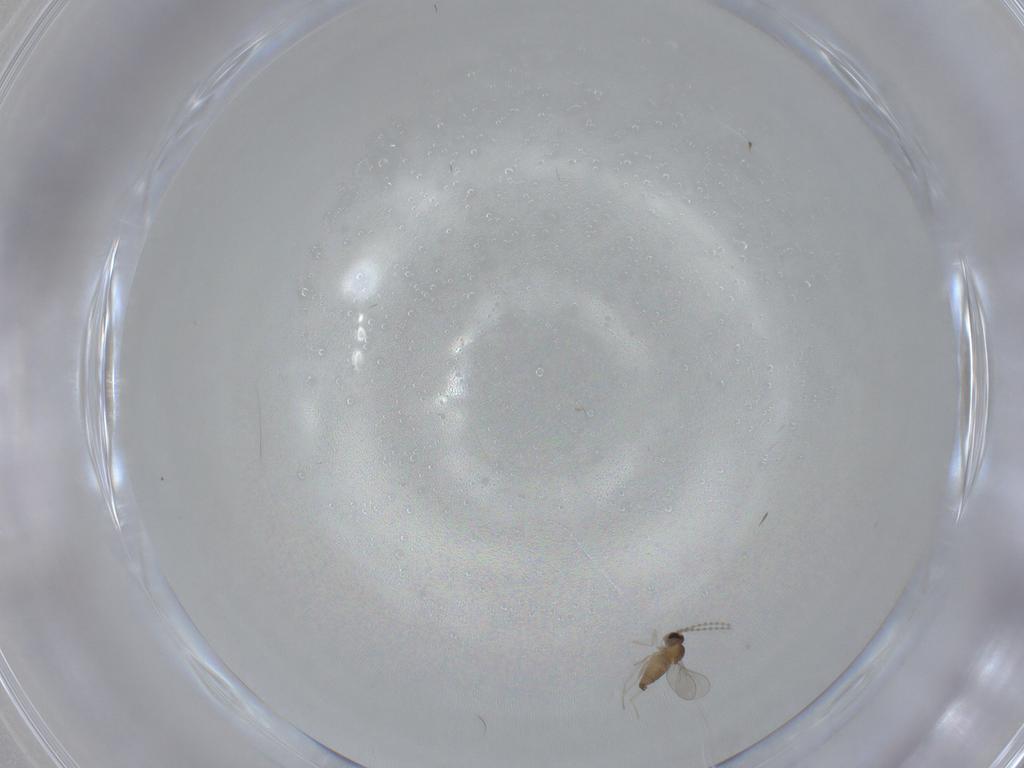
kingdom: Animalia
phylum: Arthropoda
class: Insecta
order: Diptera
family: Chironomidae
